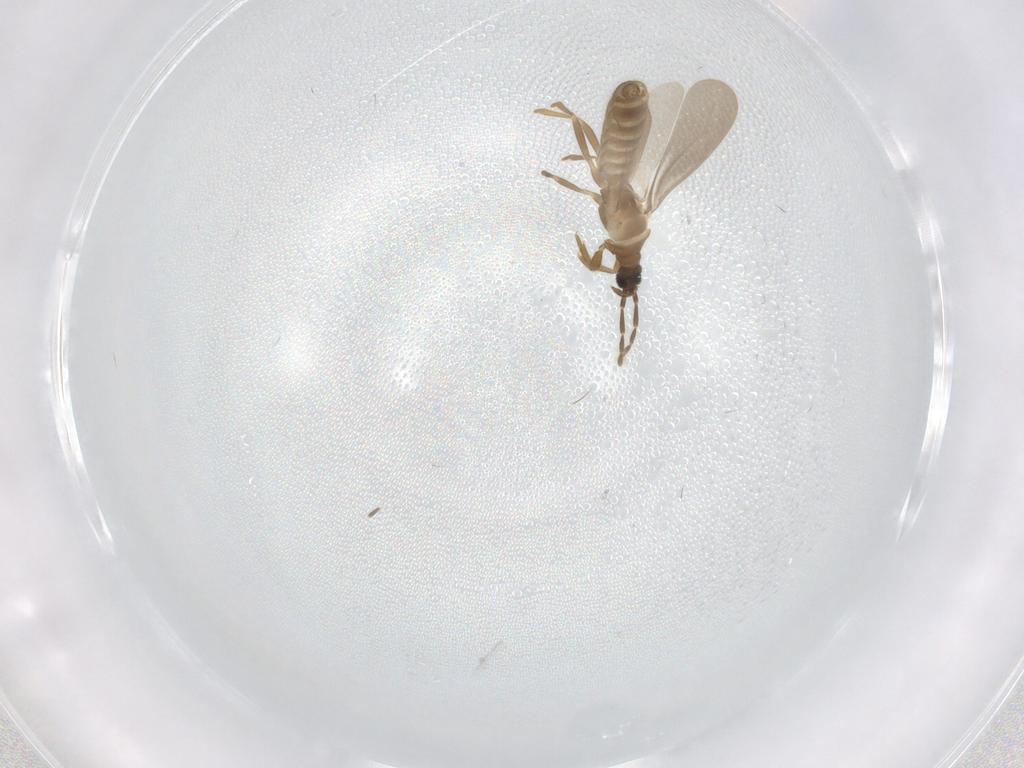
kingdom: Animalia
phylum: Arthropoda
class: Insecta
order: Hemiptera
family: Enicocephalidae
